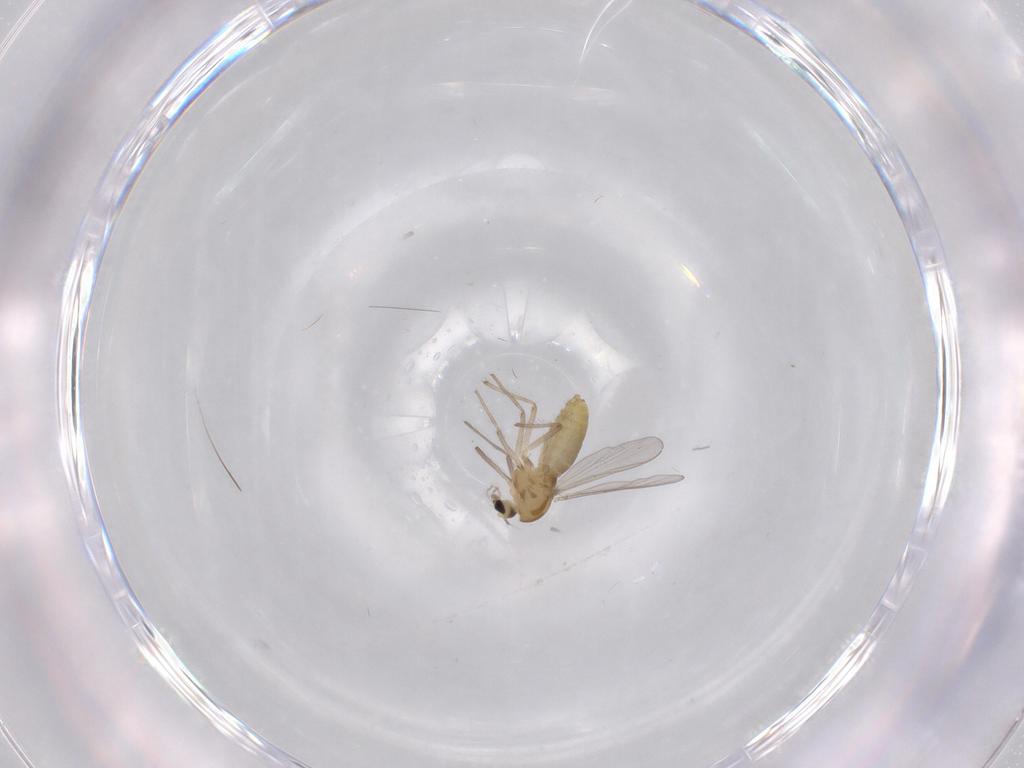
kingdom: Animalia
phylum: Arthropoda
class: Insecta
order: Diptera
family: Chironomidae
